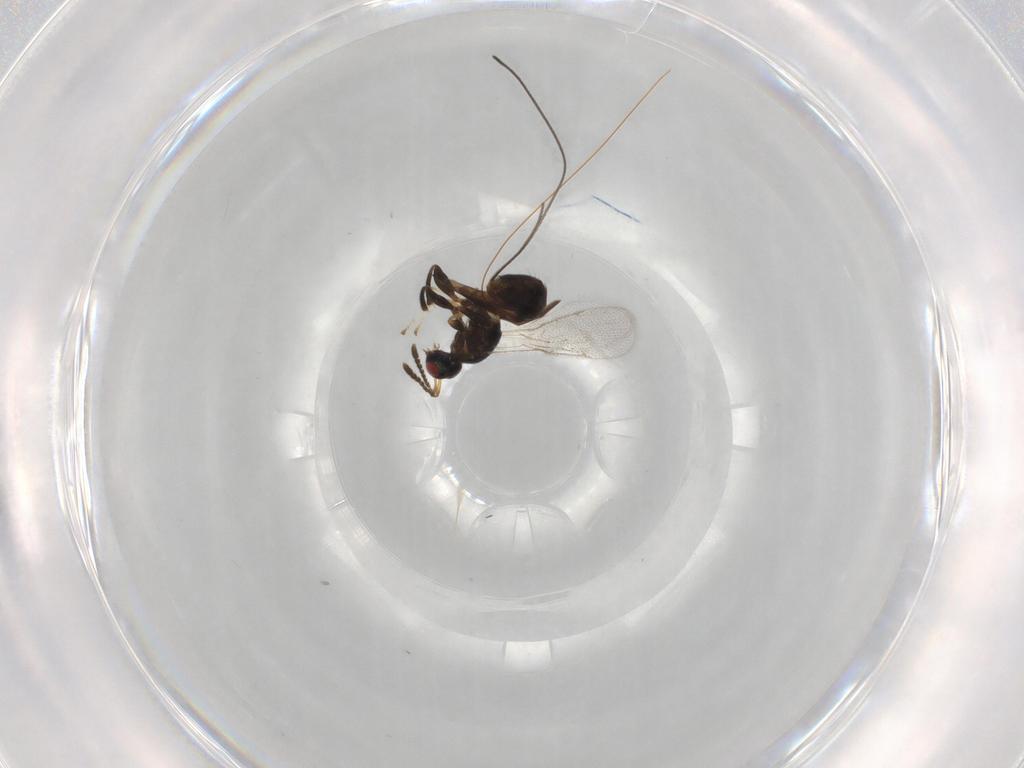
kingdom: Animalia
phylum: Arthropoda
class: Insecta
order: Hymenoptera
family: Torymidae
